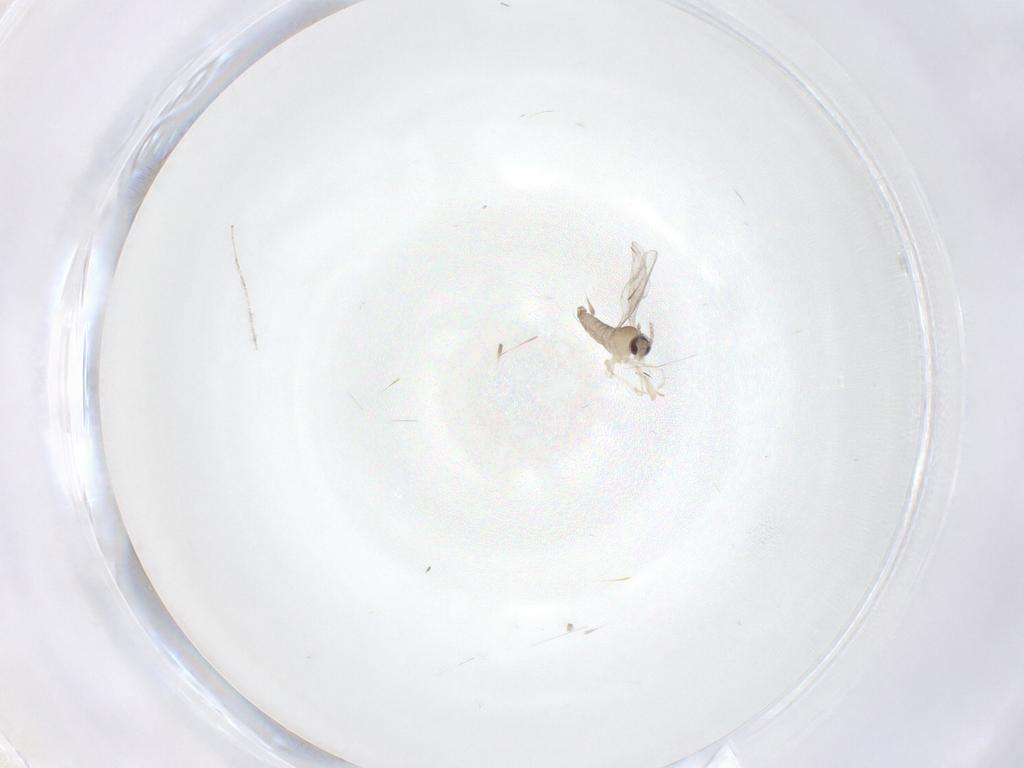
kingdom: Animalia
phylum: Arthropoda
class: Insecta
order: Diptera
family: Cecidomyiidae
